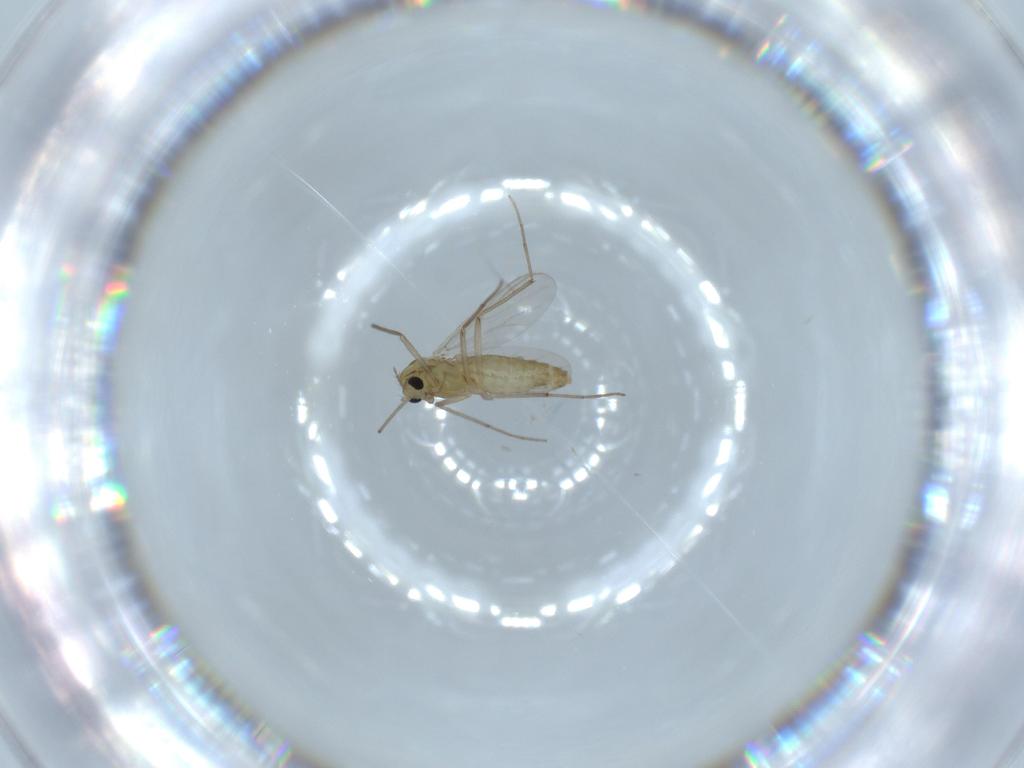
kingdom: Animalia
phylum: Arthropoda
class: Insecta
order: Diptera
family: Chironomidae
